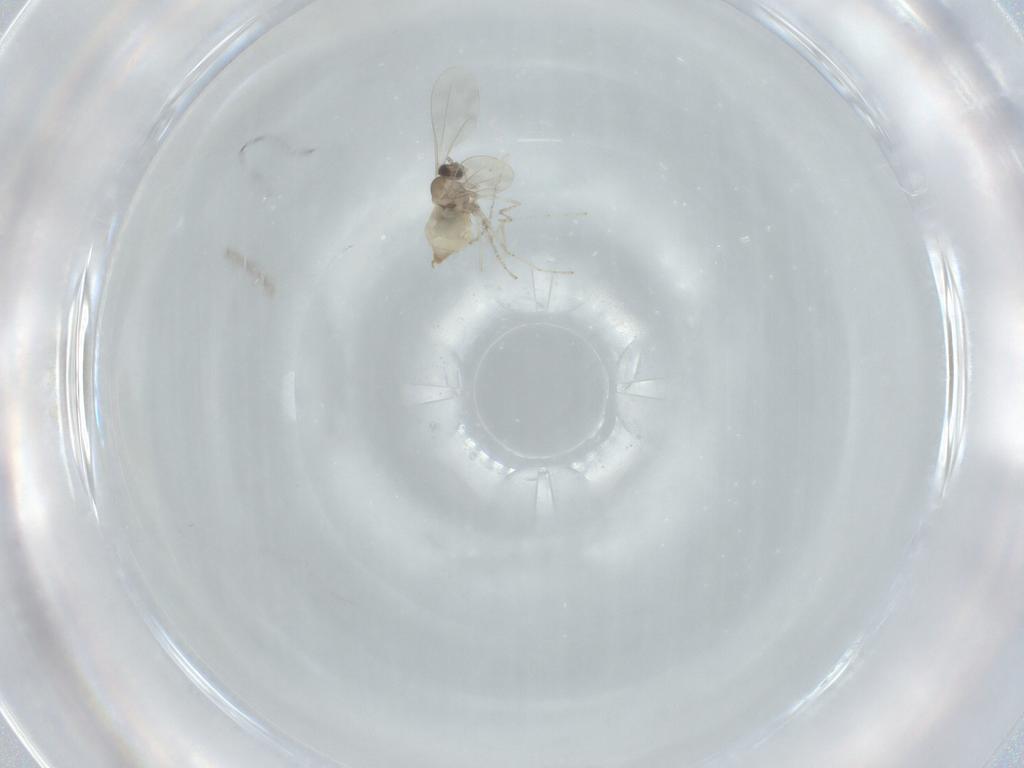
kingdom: Animalia
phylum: Arthropoda
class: Insecta
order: Diptera
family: Cecidomyiidae
